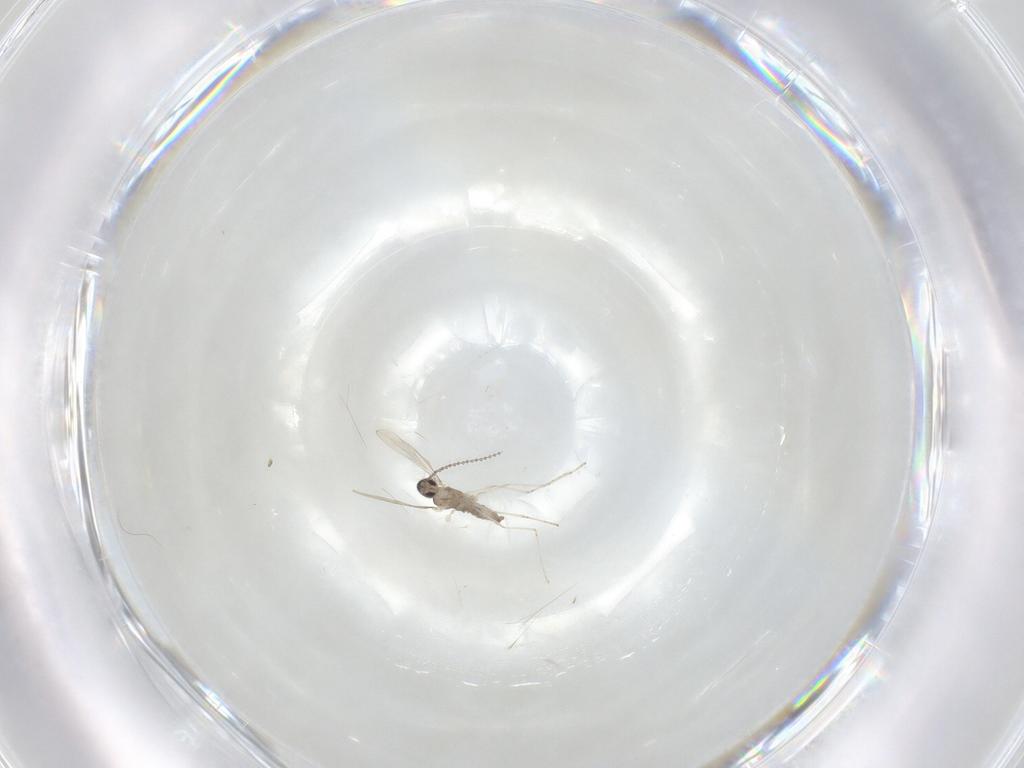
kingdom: Animalia
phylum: Arthropoda
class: Insecta
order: Diptera
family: Cecidomyiidae
